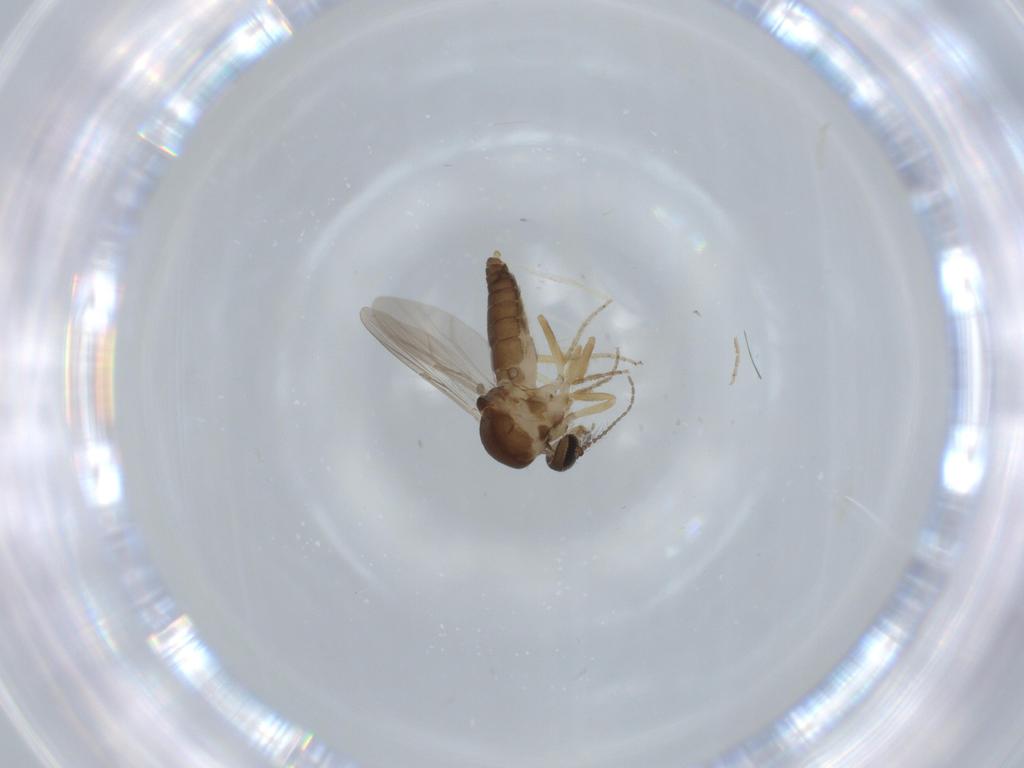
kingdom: Animalia
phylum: Arthropoda
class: Insecta
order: Diptera
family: Ceratopogonidae
